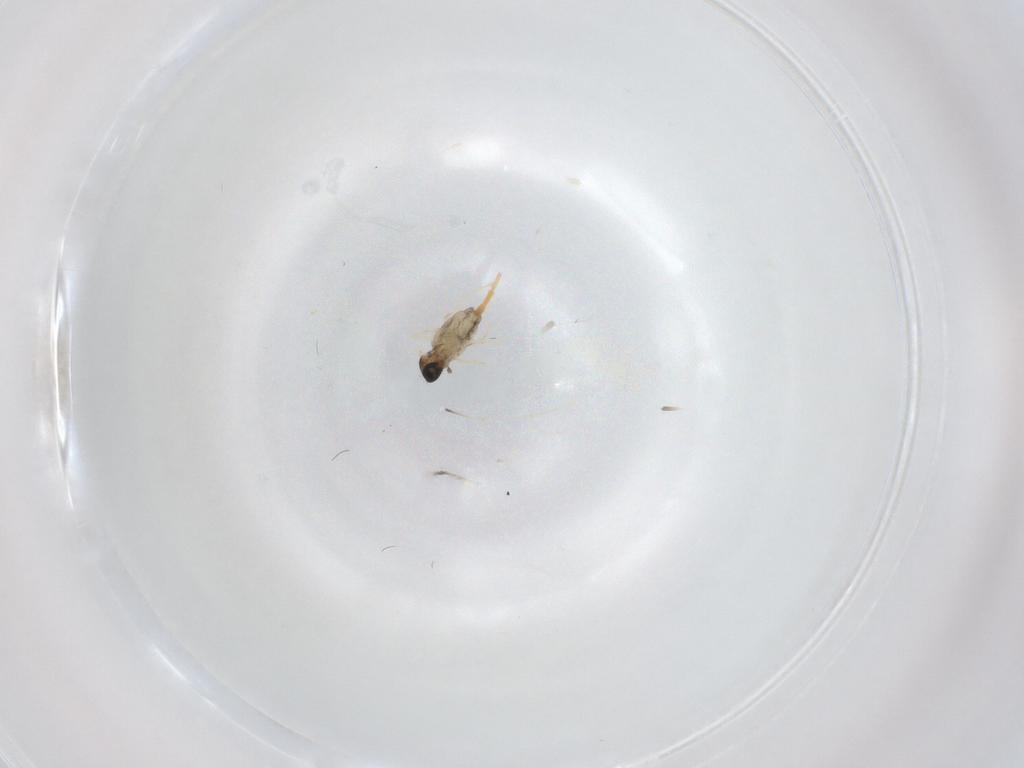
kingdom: Animalia
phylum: Arthropoda
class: Insecta
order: Diptera
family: Cecidomyiidae
